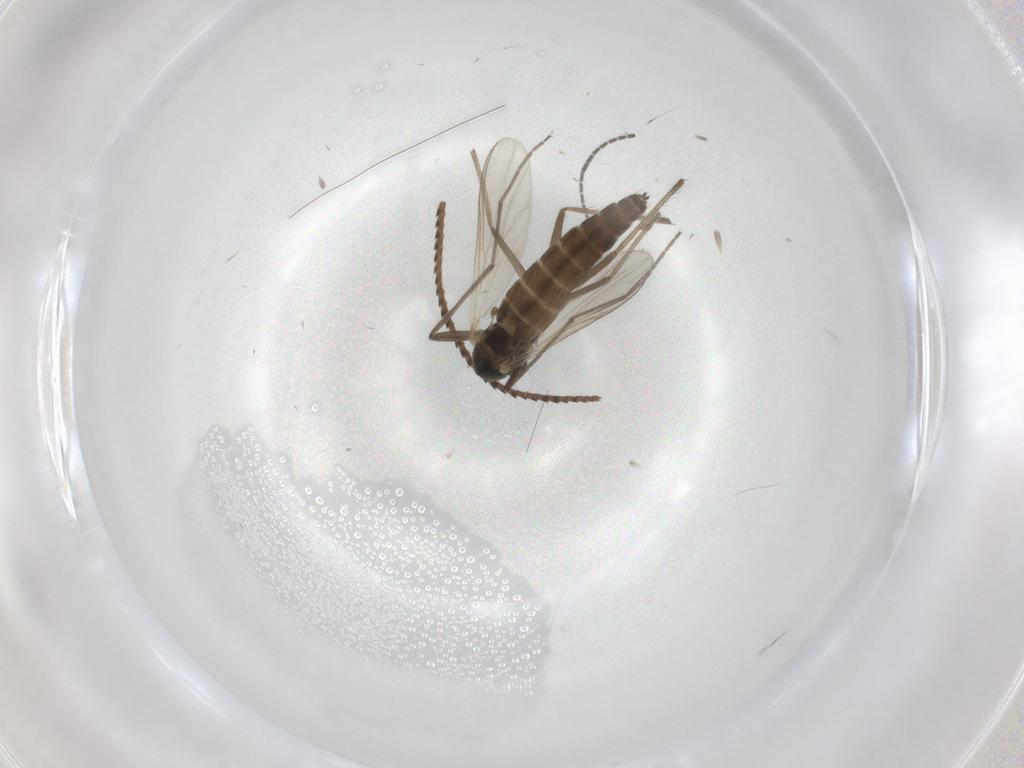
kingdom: Animalia
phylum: Arthropoda
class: Insecta
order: Diptera
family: Chironomidae
